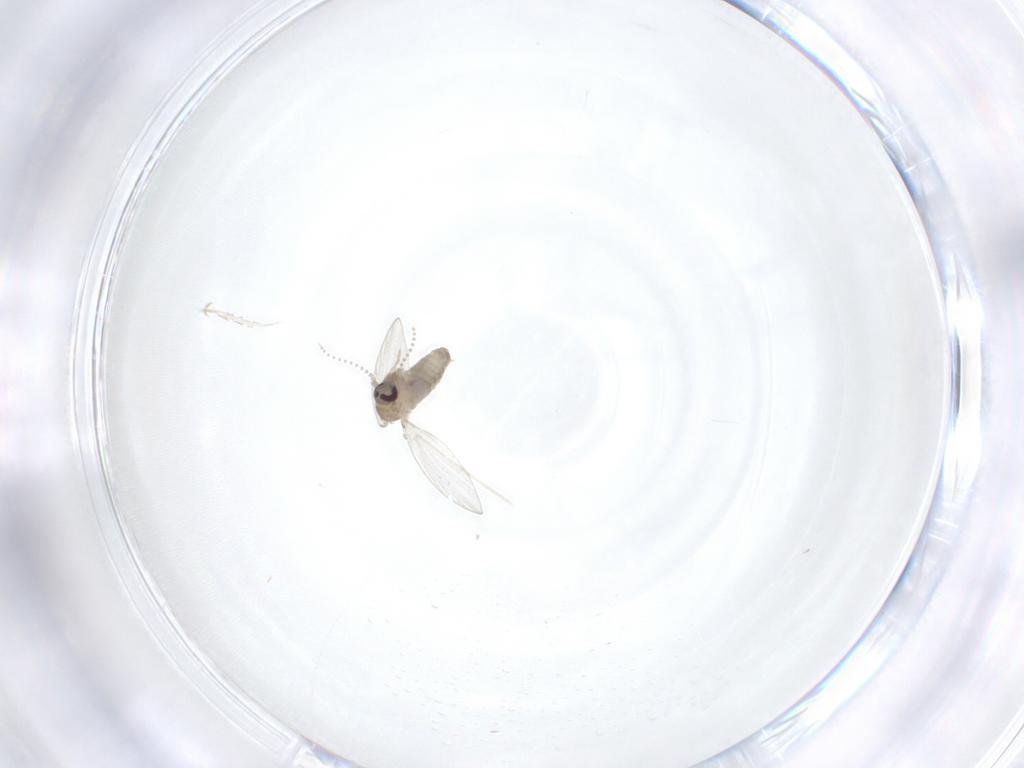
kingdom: Animalia
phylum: Arthropoda
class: Insecta
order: Diptera
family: Psychodidae
